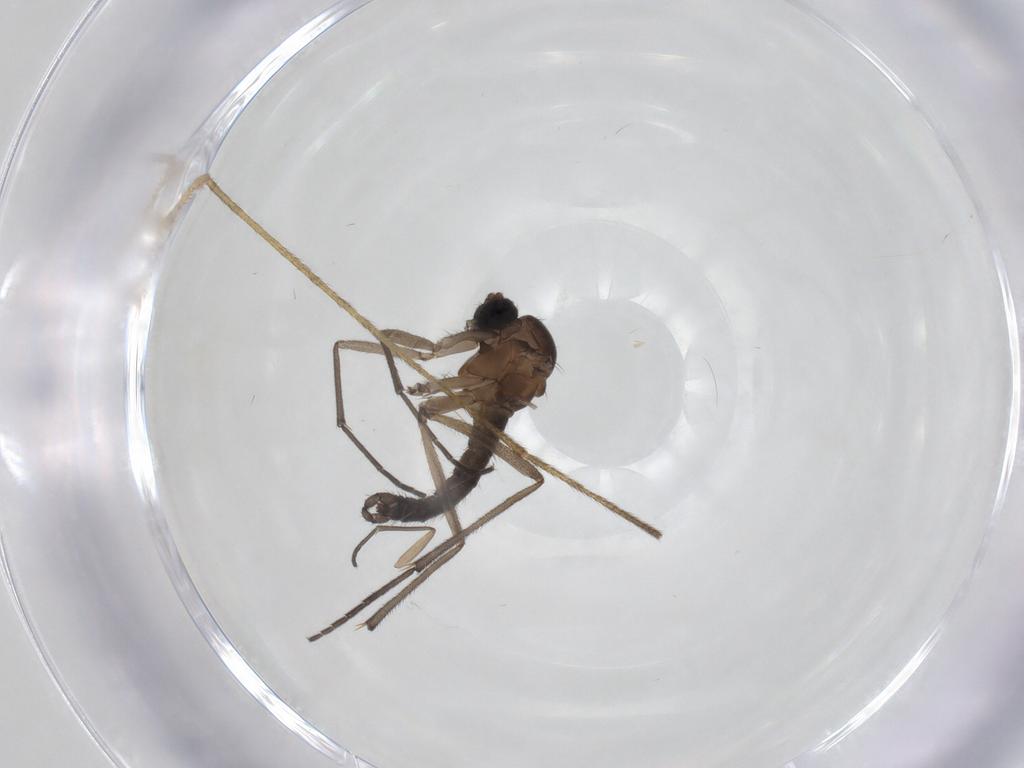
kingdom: Animalia
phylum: Arthropoda
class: Insecta
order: Diptera
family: Sciaridae
